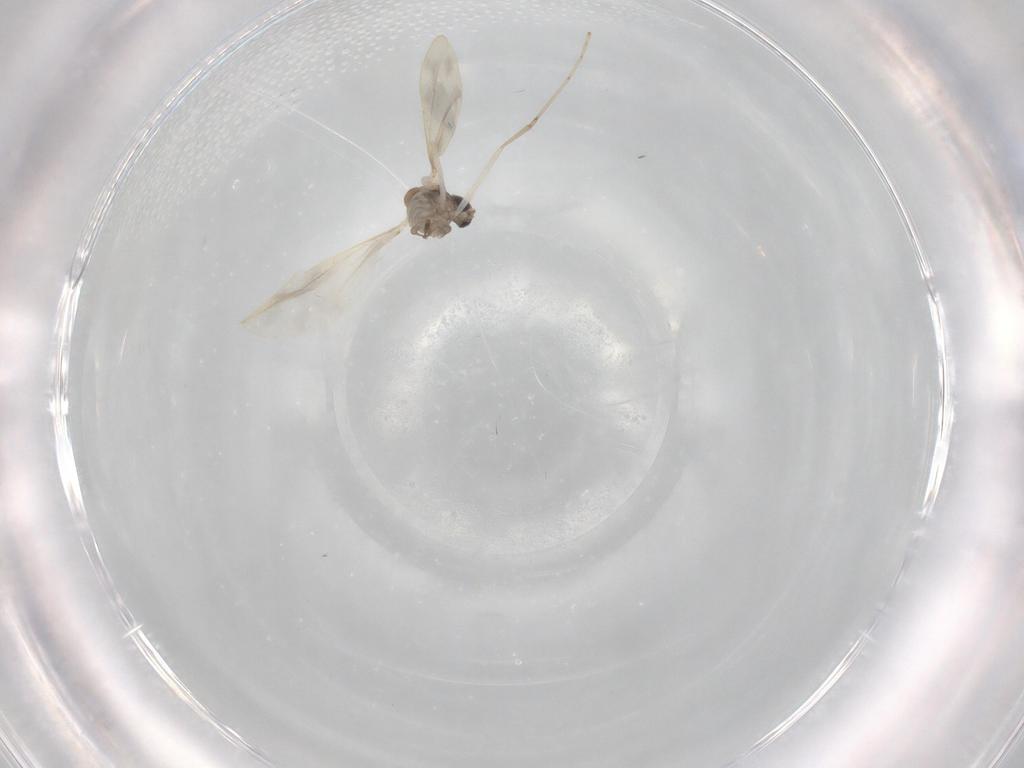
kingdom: Animalia
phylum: Arthropoda
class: Insecta
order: Diptera
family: Cecidomyiidae
